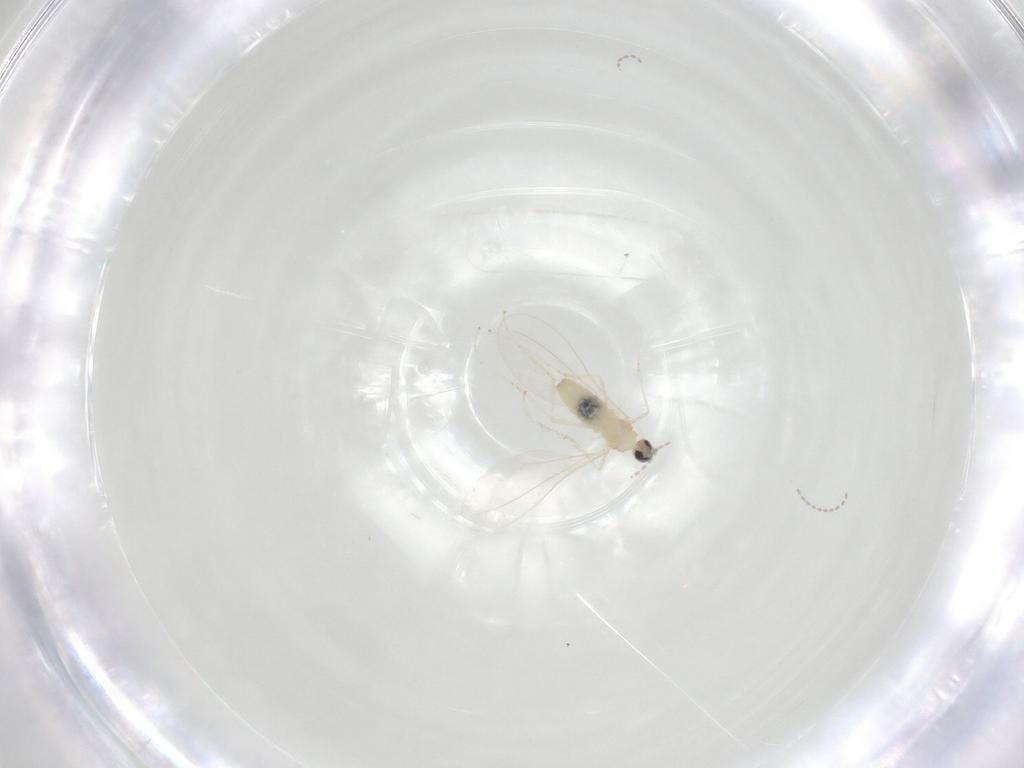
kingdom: Animalia
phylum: Arthropoda
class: Insecta
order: Diptera
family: Cecidomyiidae
